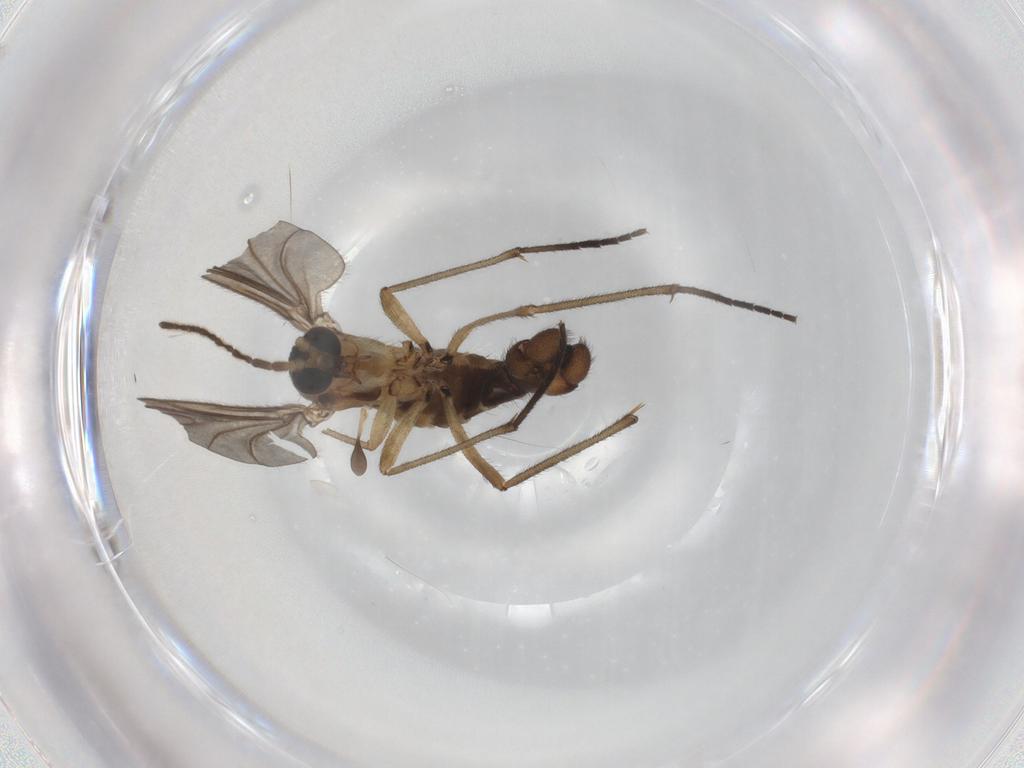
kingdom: Animalia
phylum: Arthropoda
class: Insecta
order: Diptera
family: Sciaridae
